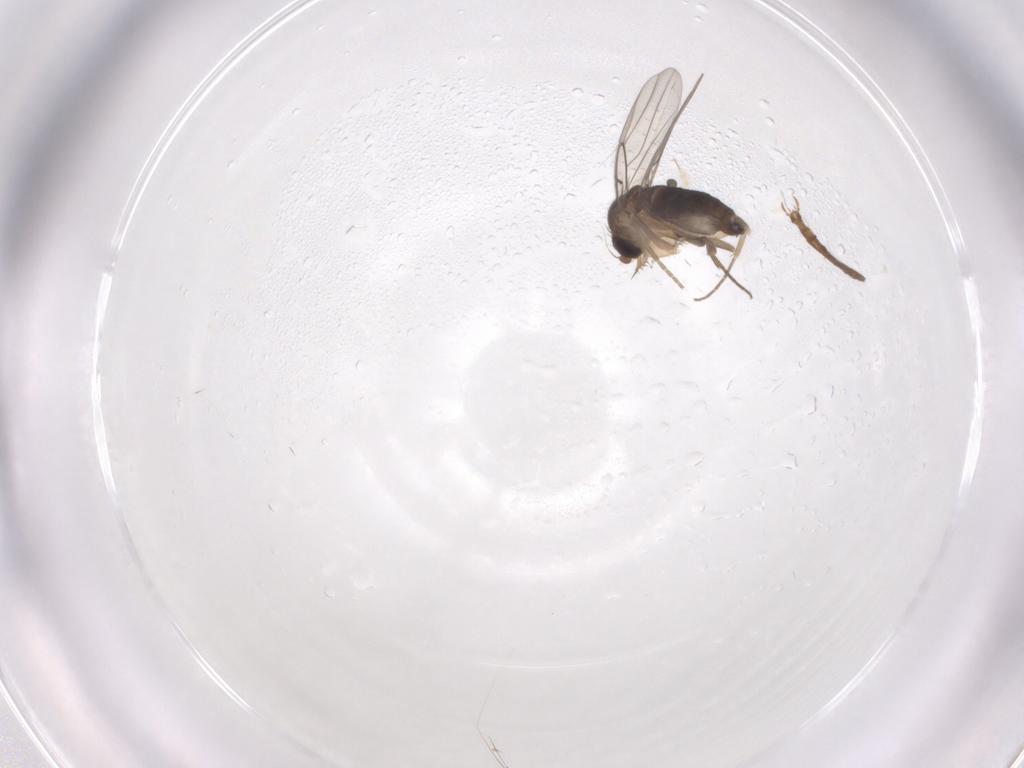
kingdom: Animalia
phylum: Arthropoda
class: Insecta
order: Diptera
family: Phoridae
